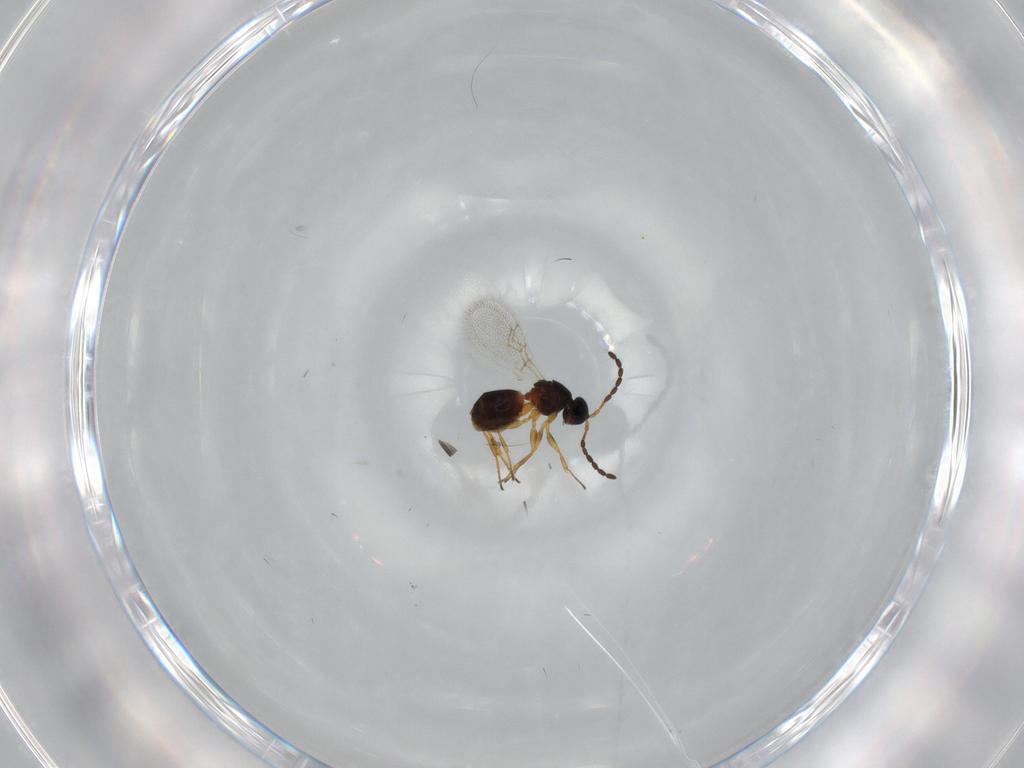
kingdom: Animalia
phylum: Arthropoda
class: Insecta
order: Hymenoptera
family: Figitidae
